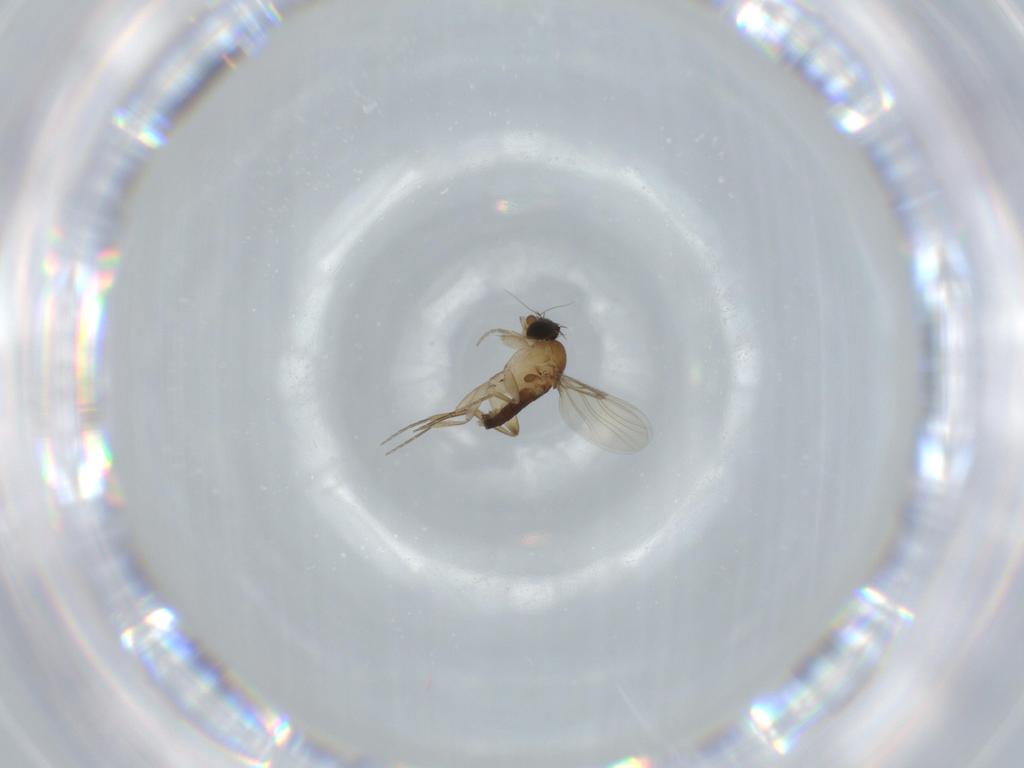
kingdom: Animalia
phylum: Arthropoda
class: Insecta
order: Diptera
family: Phoridae
